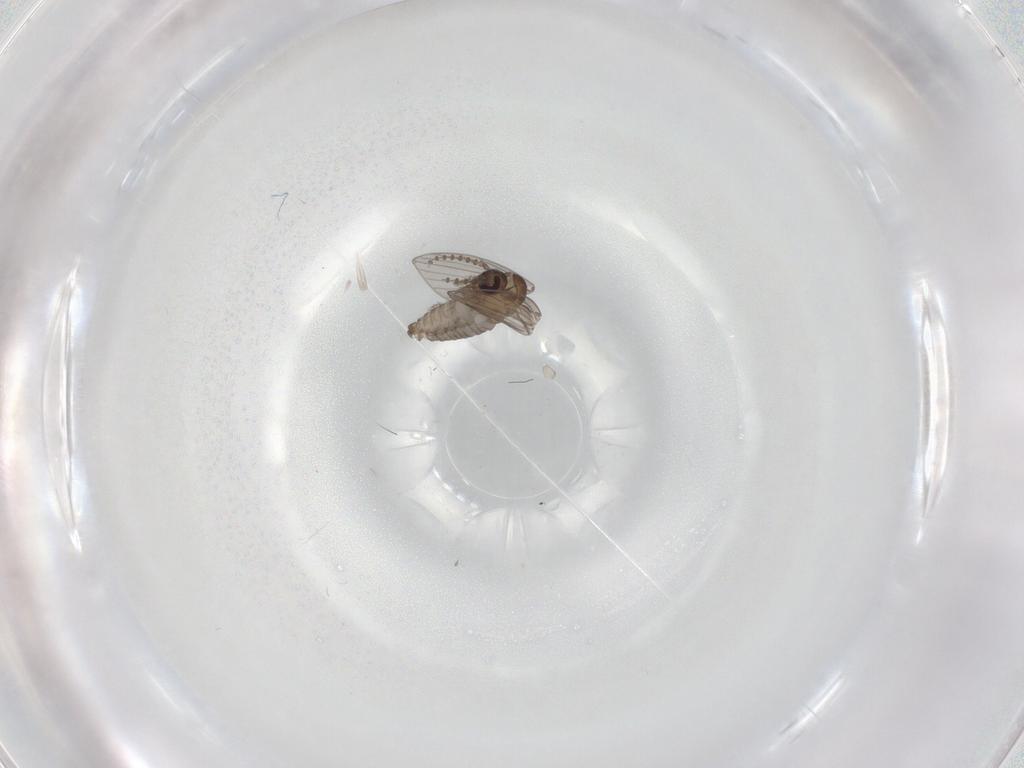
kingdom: Animalia
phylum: Arthropoda
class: Insecta
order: Diptera
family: Psychodidae
